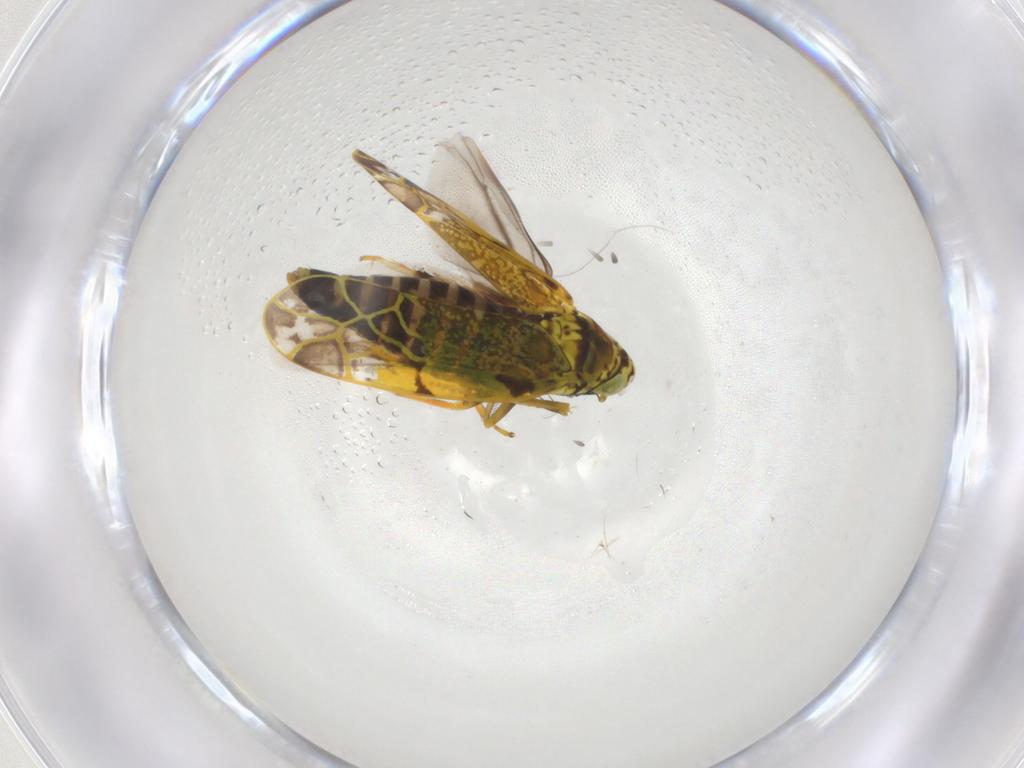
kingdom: Animalia
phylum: Arthropoda
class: Insecta
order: Hemiptera
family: Cicadellidae
